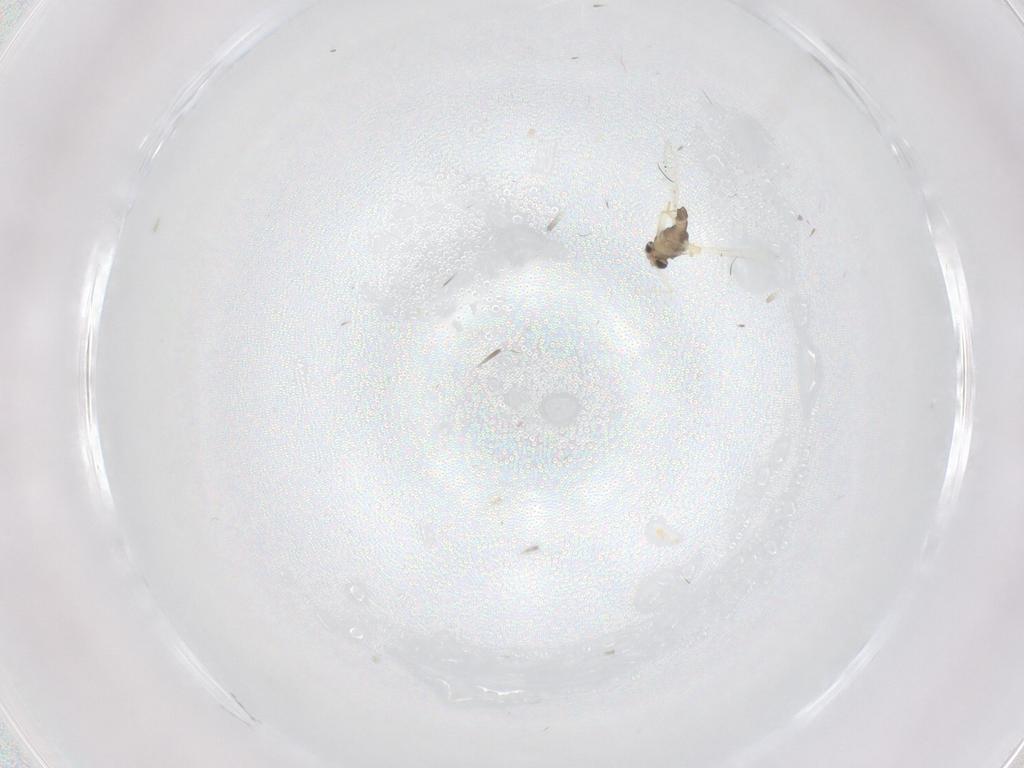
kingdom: Animalia
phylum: Arthropoda
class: Insecta
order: Diptera
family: Chironomidae
